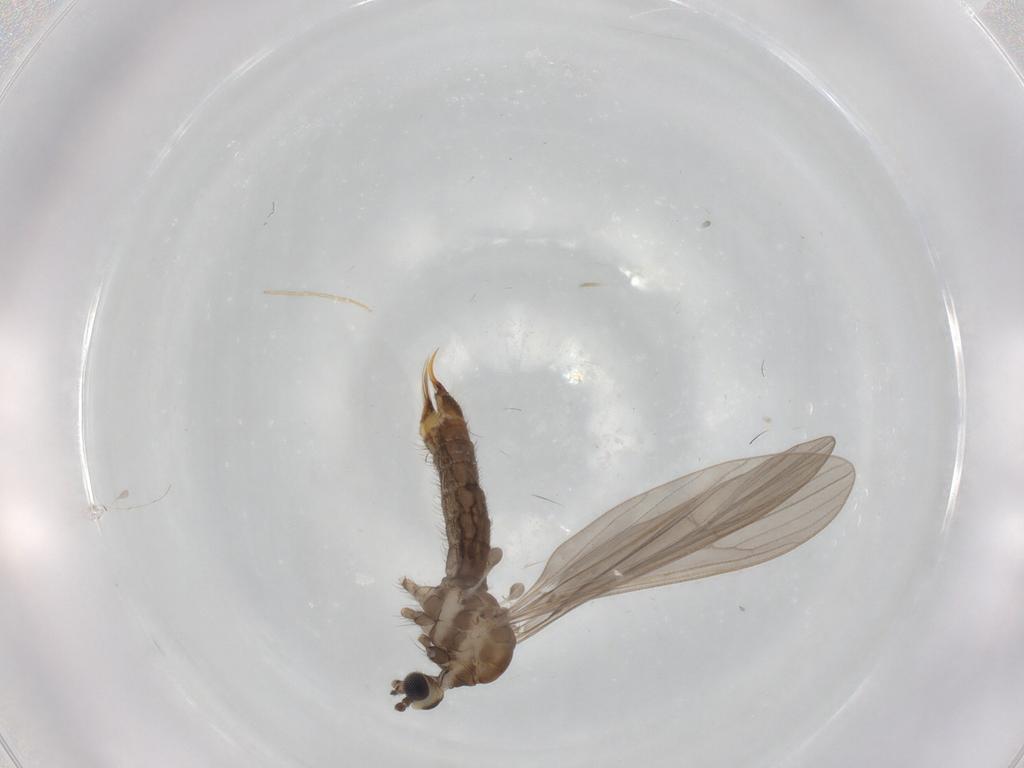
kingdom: Animalia
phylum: Arthropoda
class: Insecta
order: Diptera
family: Limoniidae
